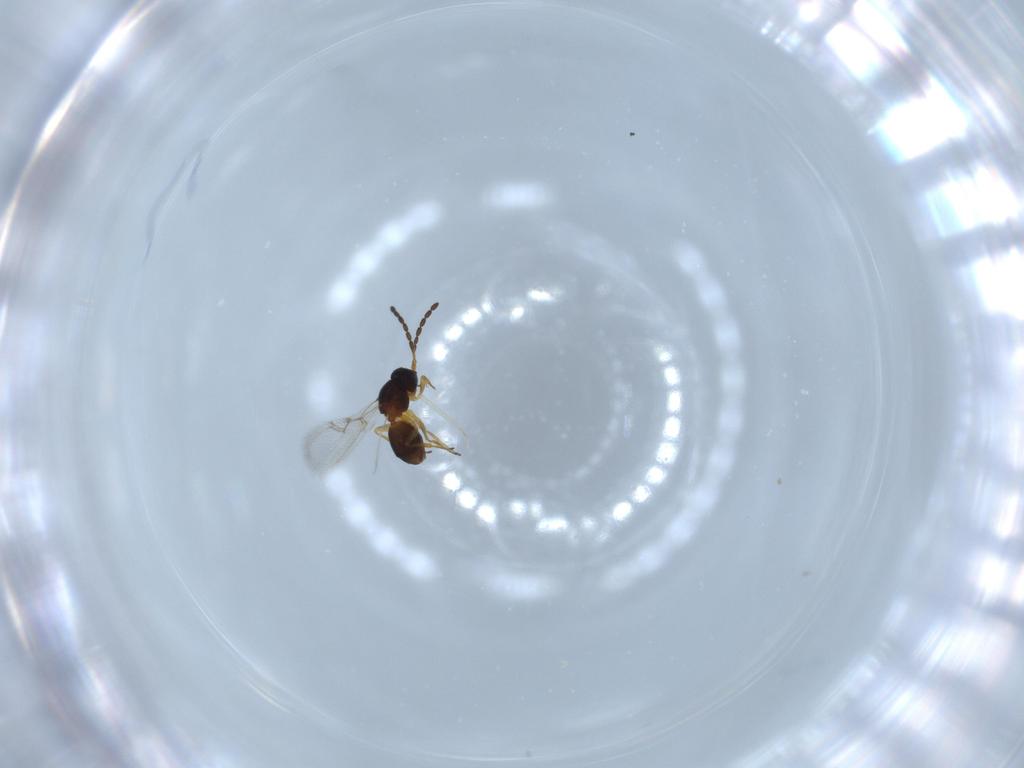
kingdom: Animalia
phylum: Arthropoda
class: Insecta
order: Hymenoptera
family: Figitidae
